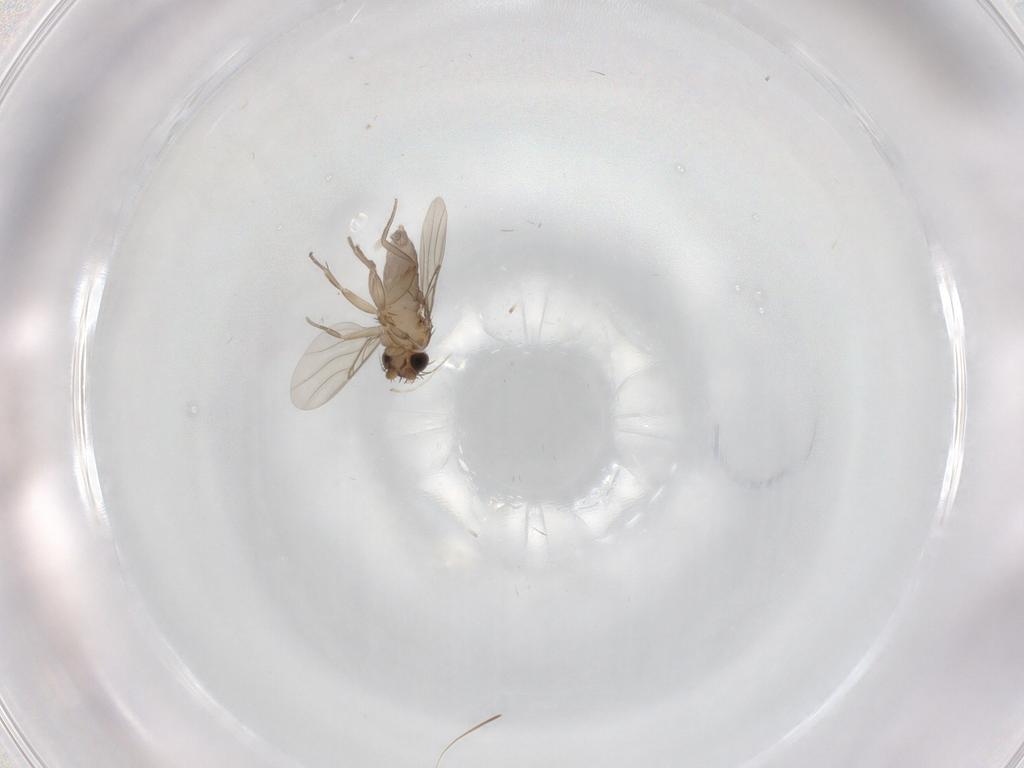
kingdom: Animalia
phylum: Arthropoda
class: Insecta
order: Diptera
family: Phoridae
